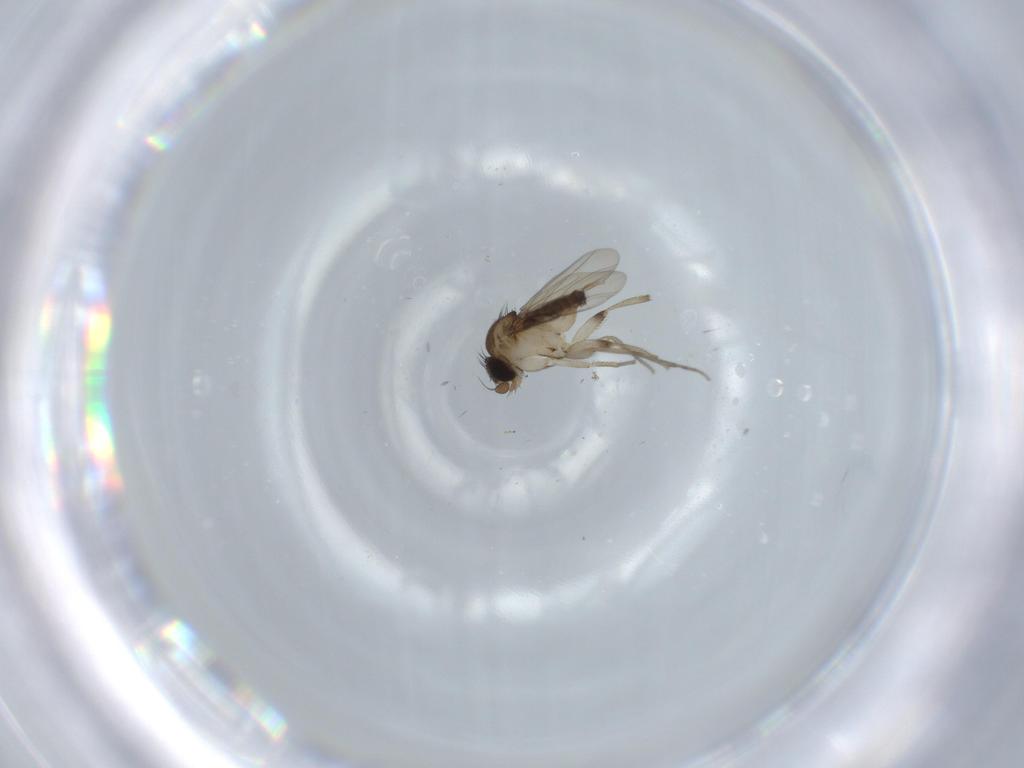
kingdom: Animalia
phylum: Arthropoda
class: Insecta
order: Diptera
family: Phoridae
